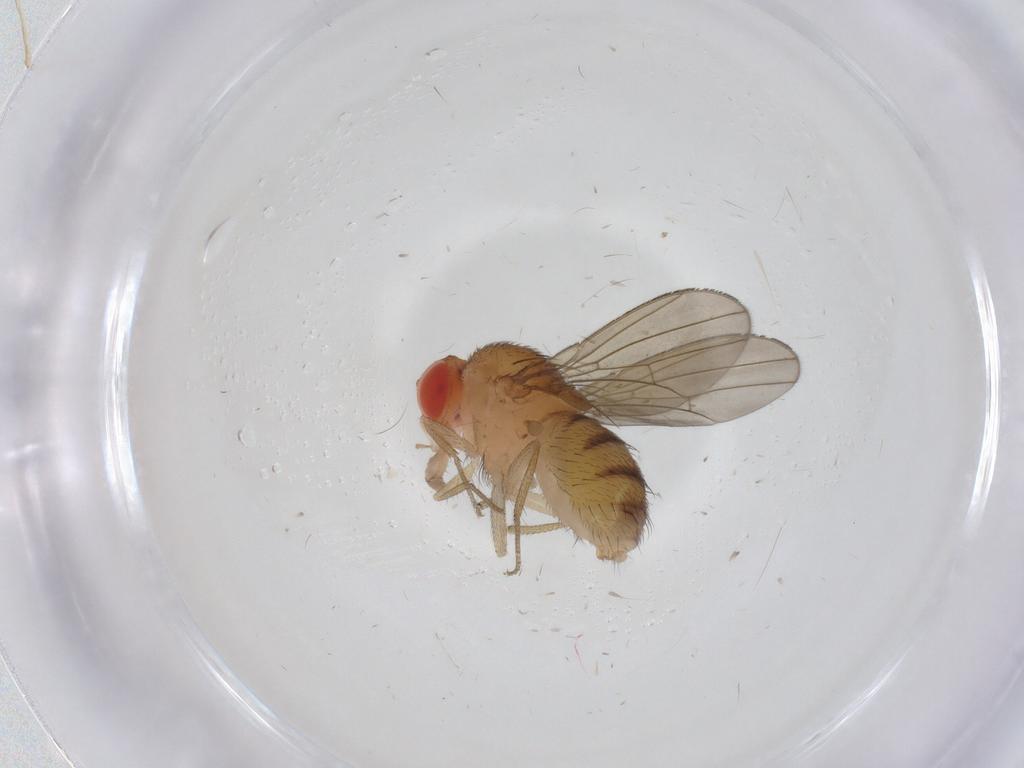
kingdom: Animalia
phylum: Arthropoda
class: Insecta
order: Diptera
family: Drosophilidae
